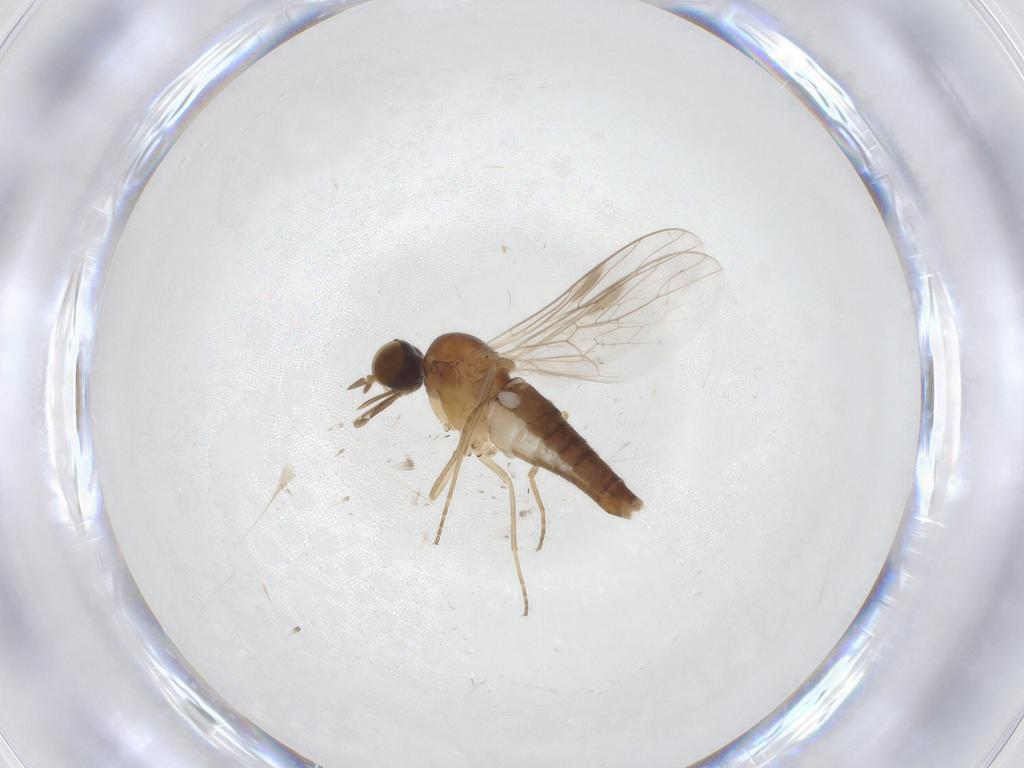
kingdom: Animalia
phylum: Arthropoda
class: Insecta
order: Diptera
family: Scenopinidae
